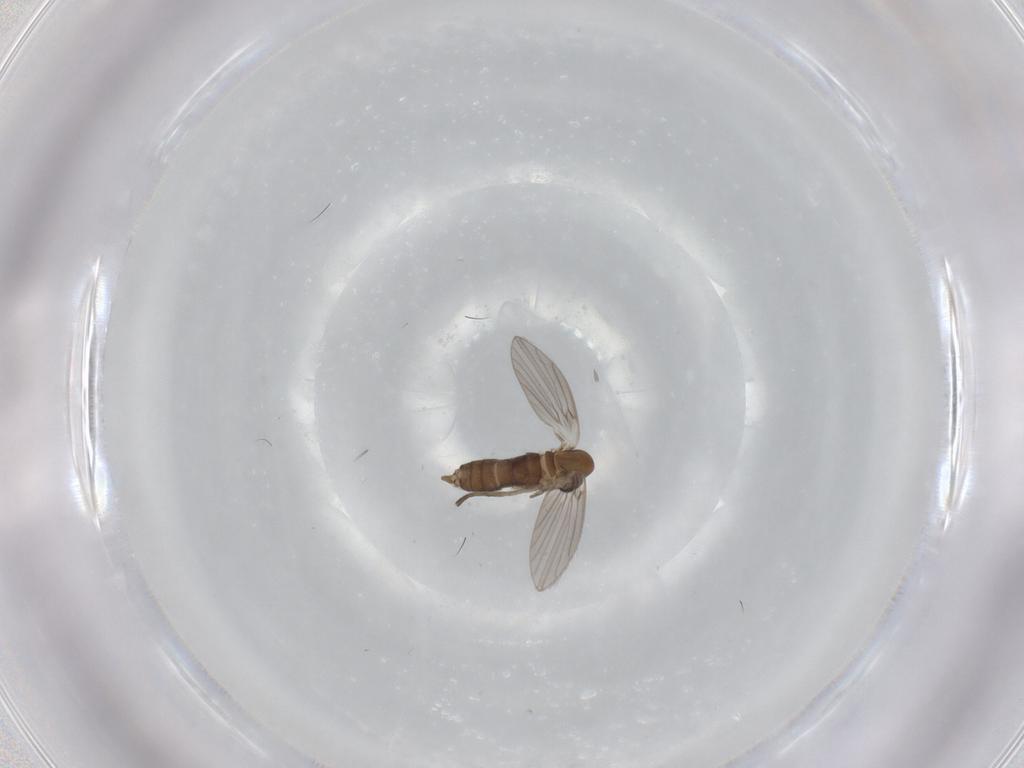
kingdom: Animalia
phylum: Arthropoda
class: Insecta
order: Diptera
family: Chironomidae
